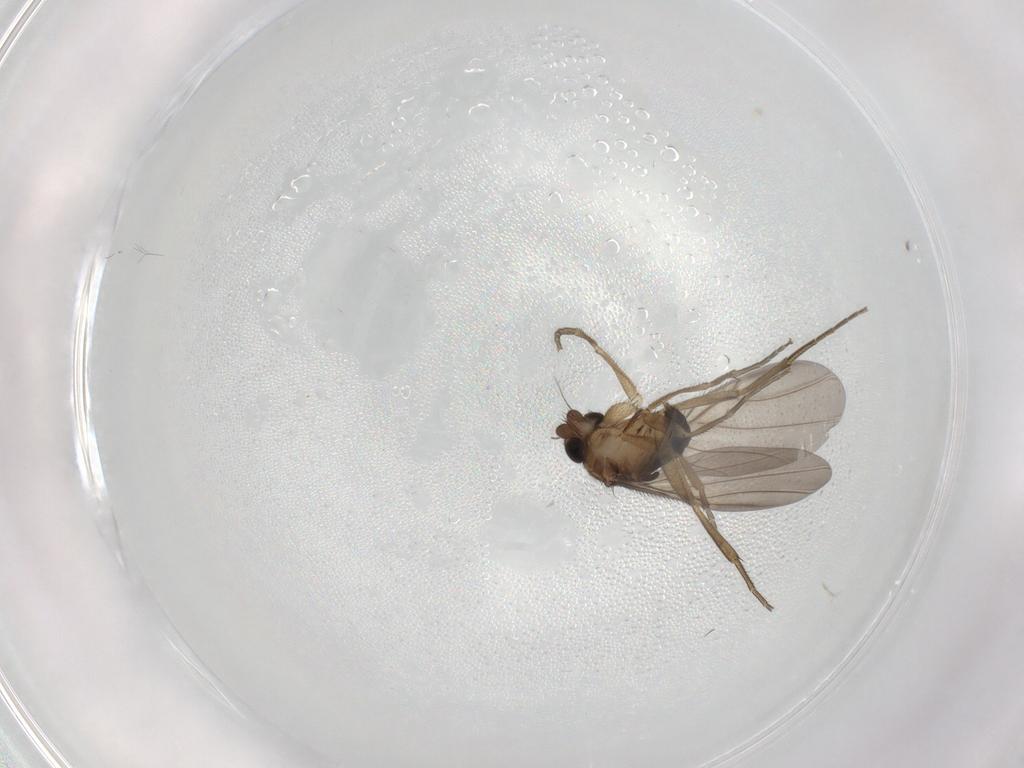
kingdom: Animalia
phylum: Arthropoda
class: Insecta
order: Diptera
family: Phoridae
